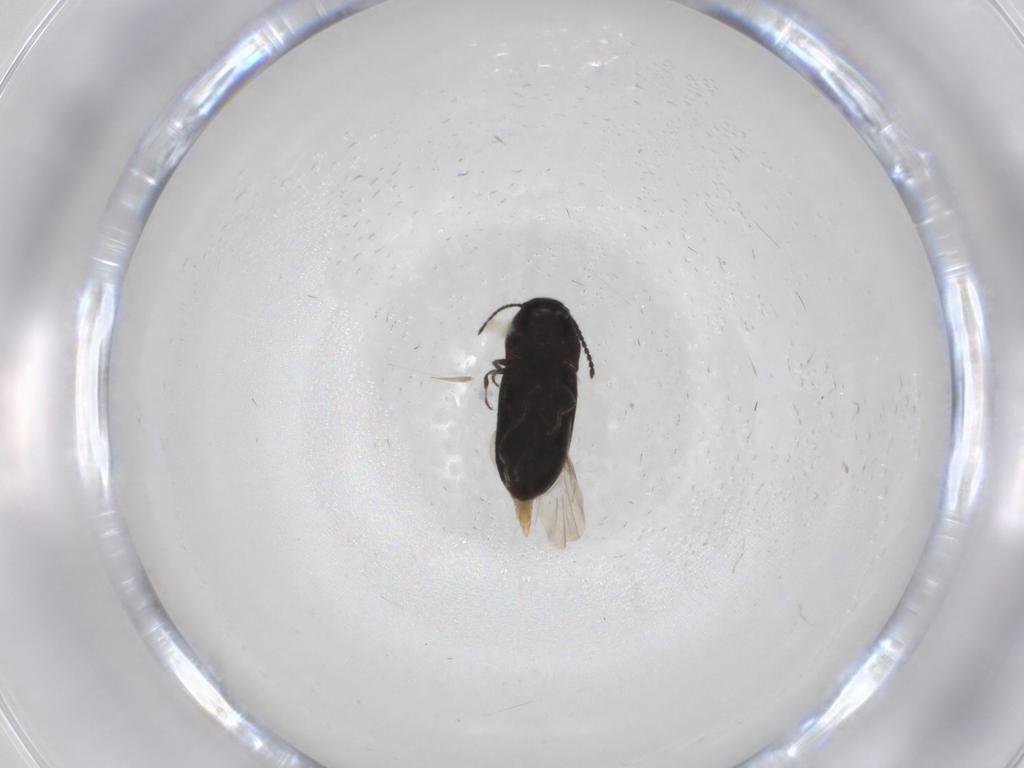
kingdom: Animalia
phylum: Arthropoda
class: Insecta
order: Coleoptera
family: Elateridae
